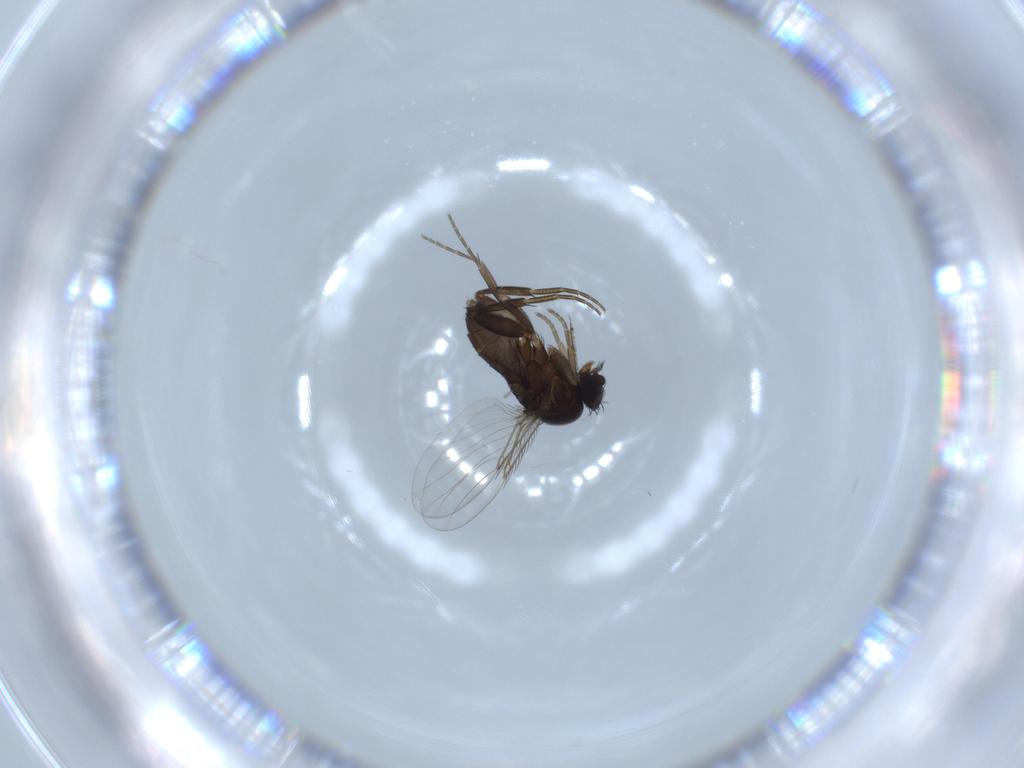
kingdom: Animalia
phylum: Arthropoda
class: Insecta
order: Diptera
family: Phoridae
